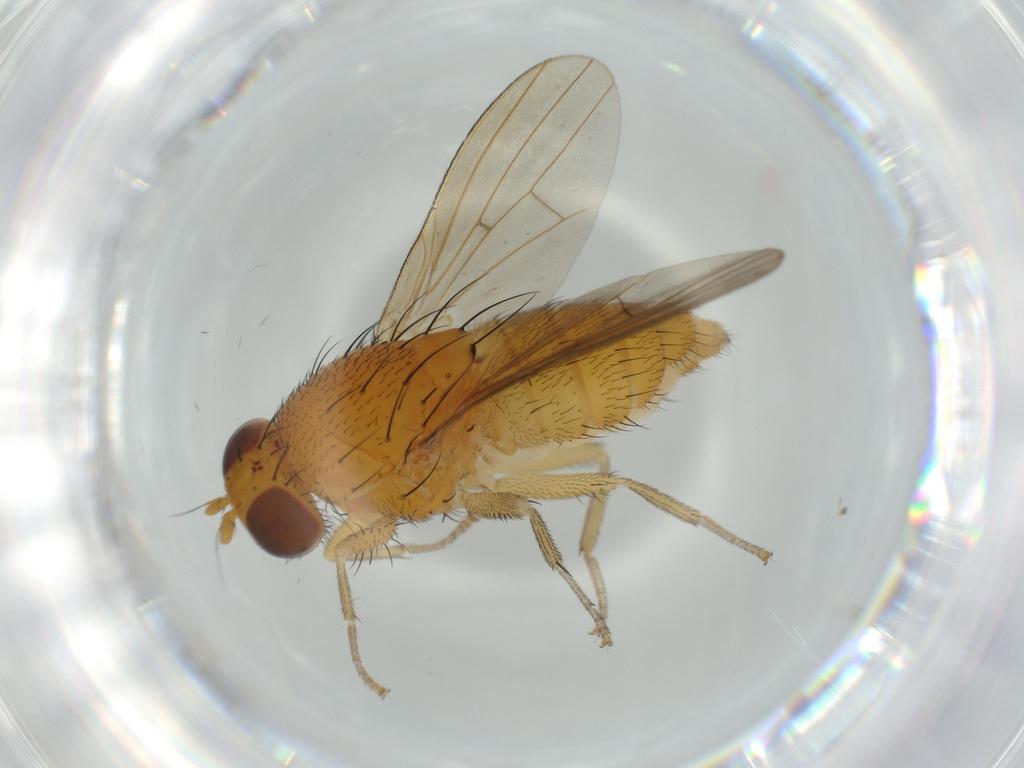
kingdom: Animalia
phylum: Arthropoda
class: Insecta
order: Diptera
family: Lauxaniidae
